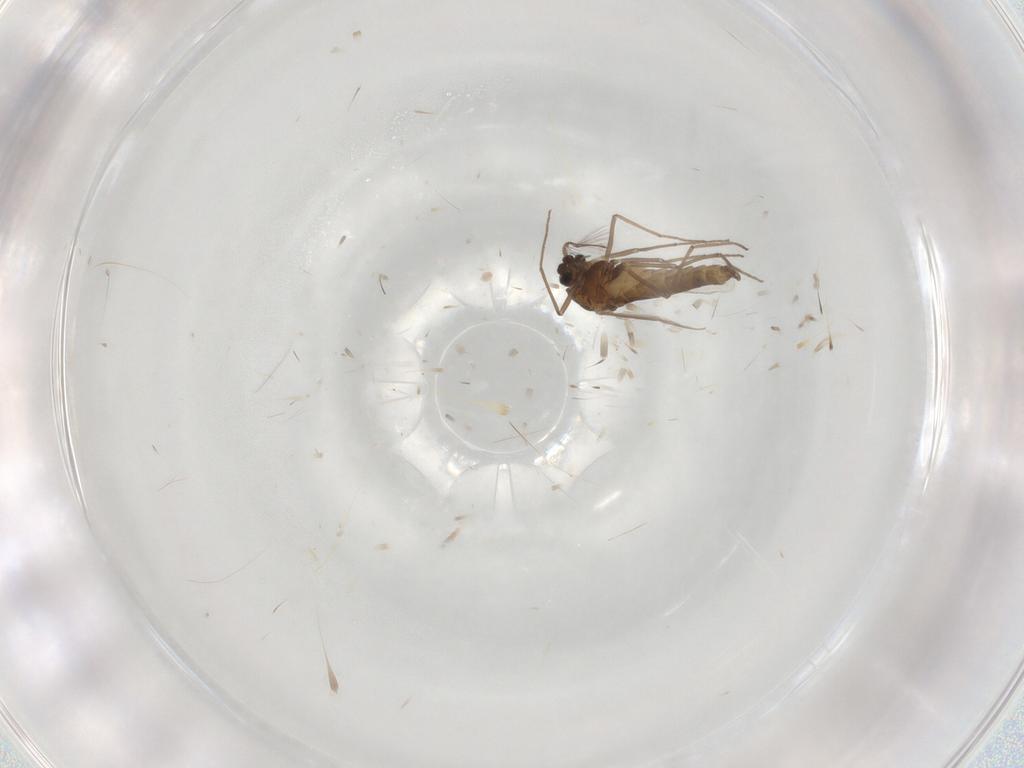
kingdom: Animalia
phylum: Arthropoda
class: Insecta
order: Diptera
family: Chironomidae
